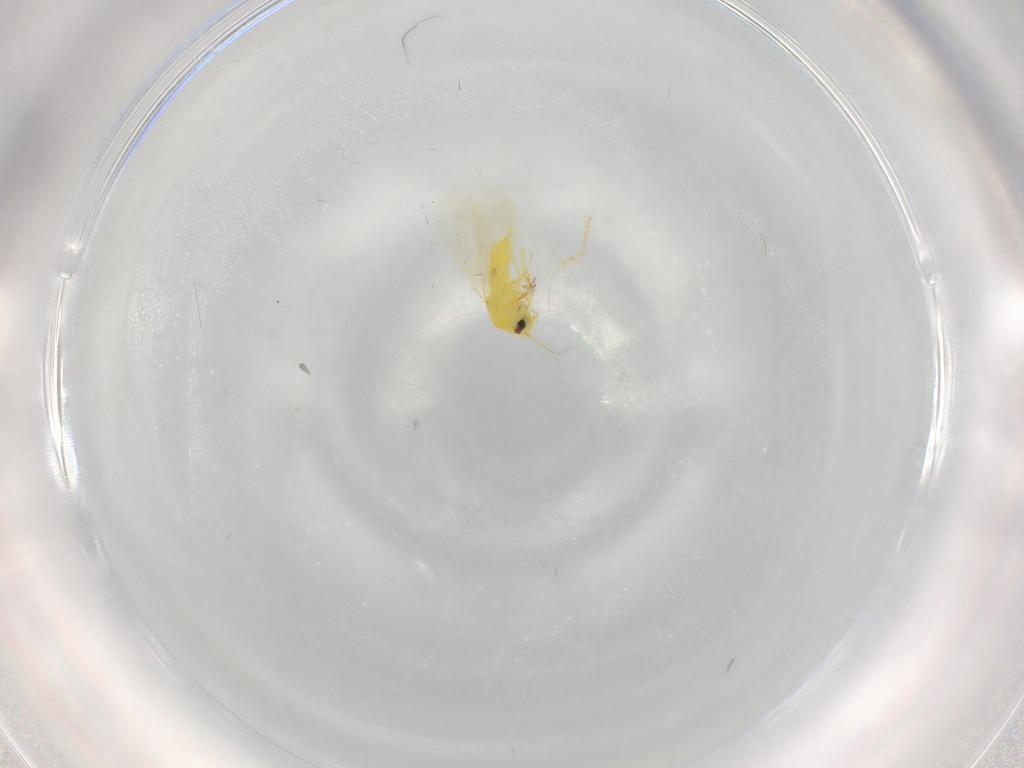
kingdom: Animalia
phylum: Arthropoda
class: Insecta
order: Hemiptera
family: Aleyrodidae
